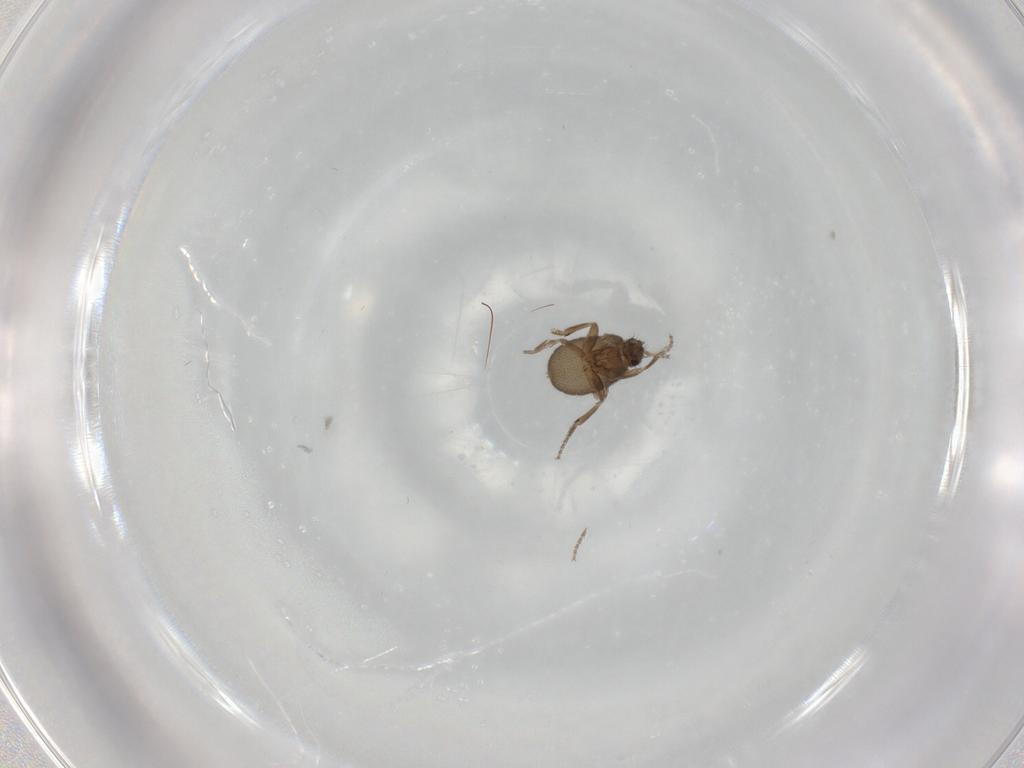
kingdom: Animalia
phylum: Arthropoda
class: Insecta
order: Diptera
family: Phoridae
